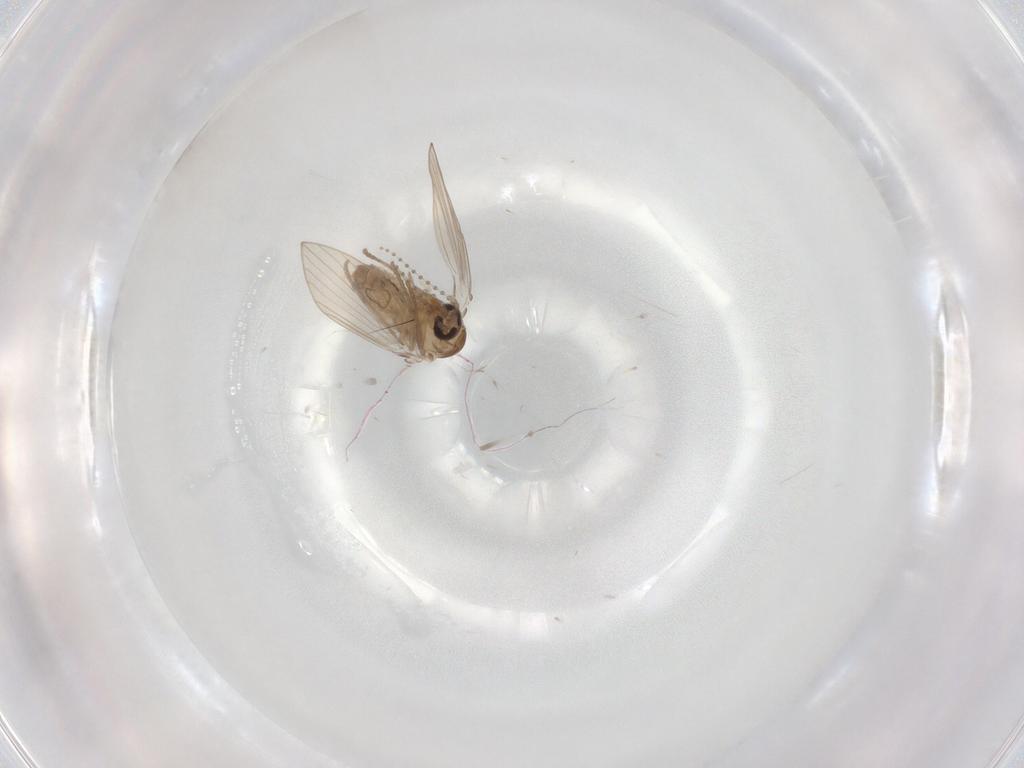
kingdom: Animalia
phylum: Arthropoda
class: Insecta
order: Diptera
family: Psychodidae
